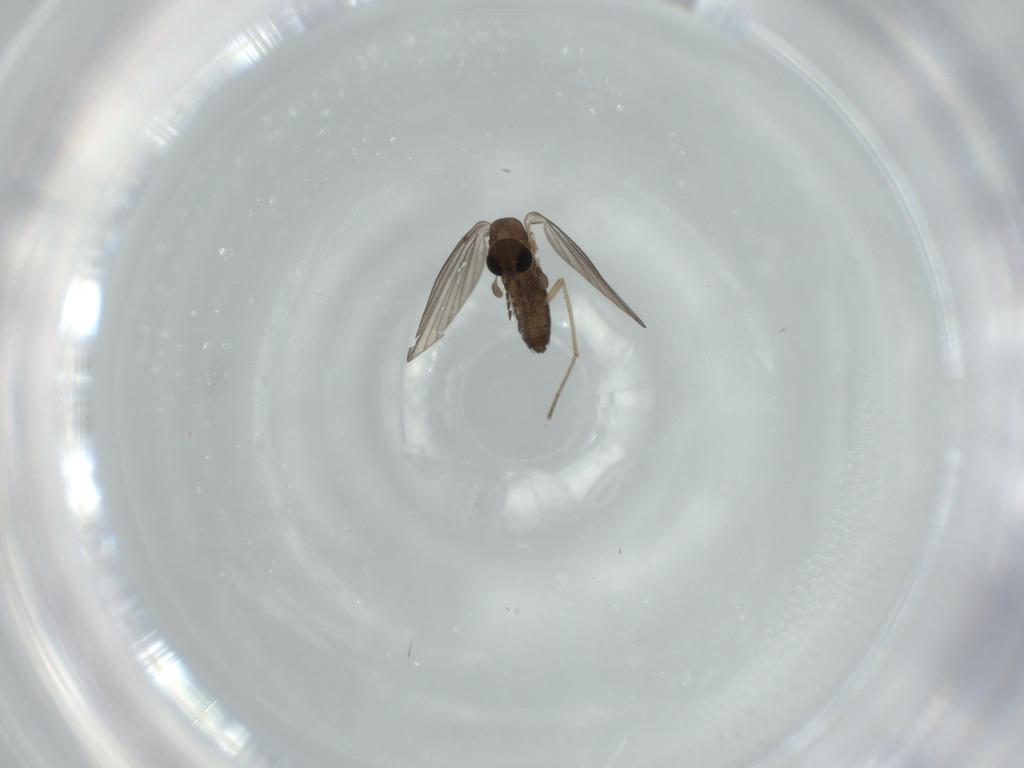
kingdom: Animalia
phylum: Arthropoda
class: Insecta
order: Diptera
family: Psychodidae
